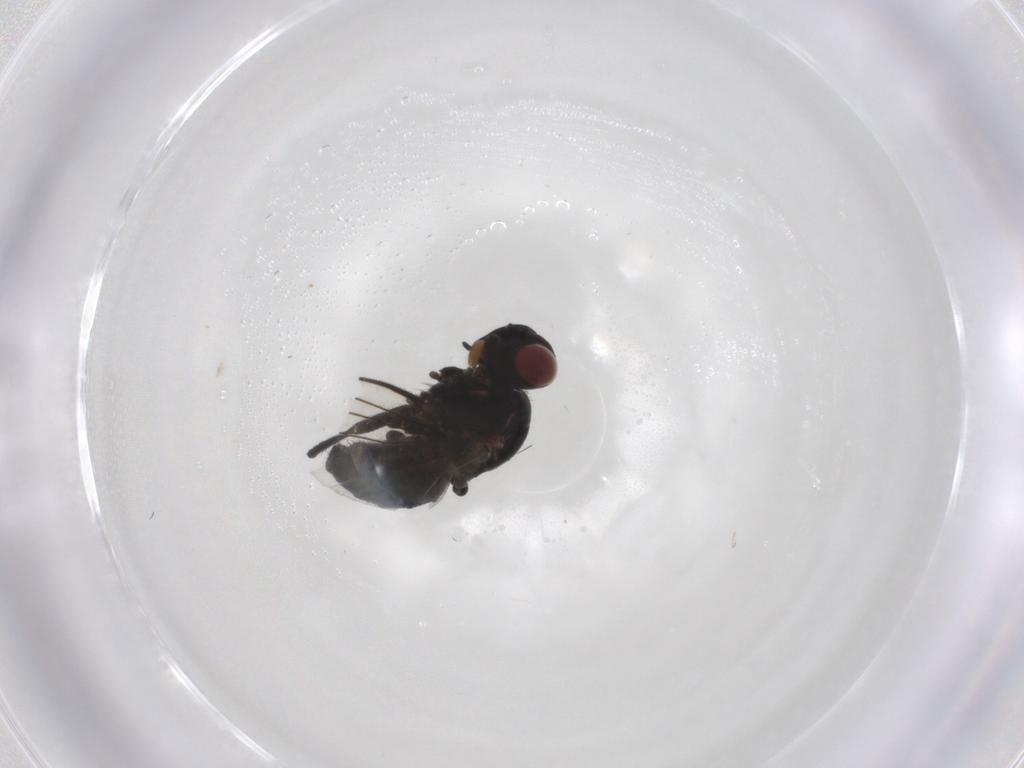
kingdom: Animalia
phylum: Arthropoda
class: Insecta
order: Diptera
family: Agromyzidae
